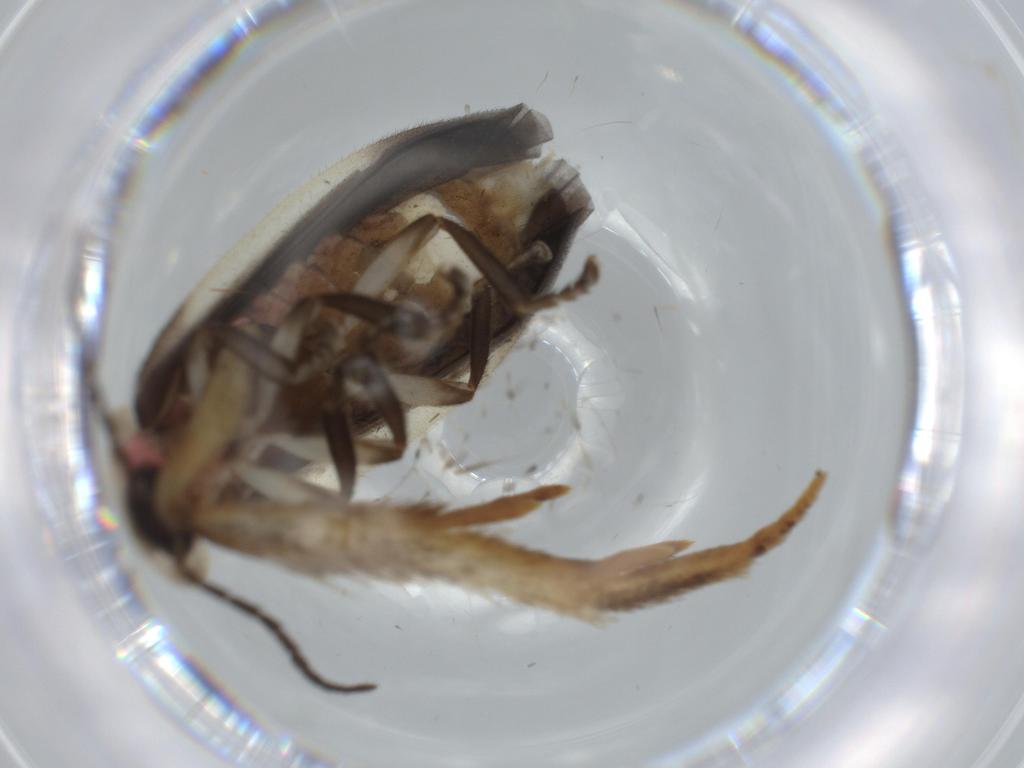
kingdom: Animalia
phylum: Arthropoda
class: Insecta
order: Coleoptera
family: Lampyridae
